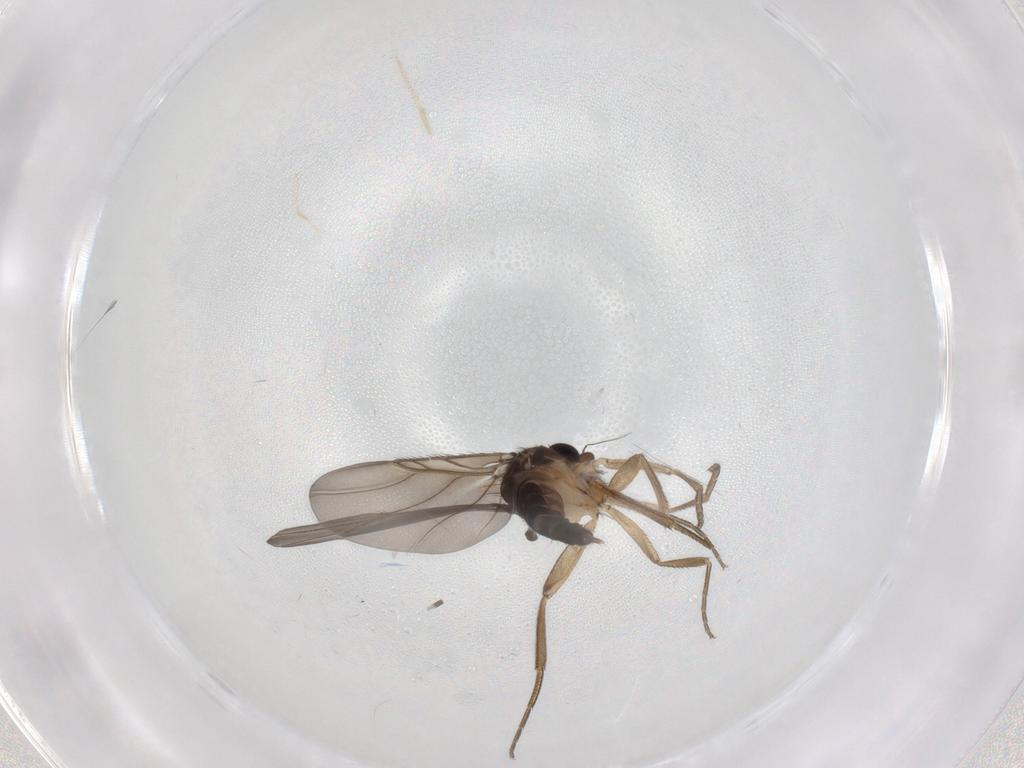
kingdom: Animalia
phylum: Arthropoda
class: Insecta
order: Diptera
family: Phoridae
